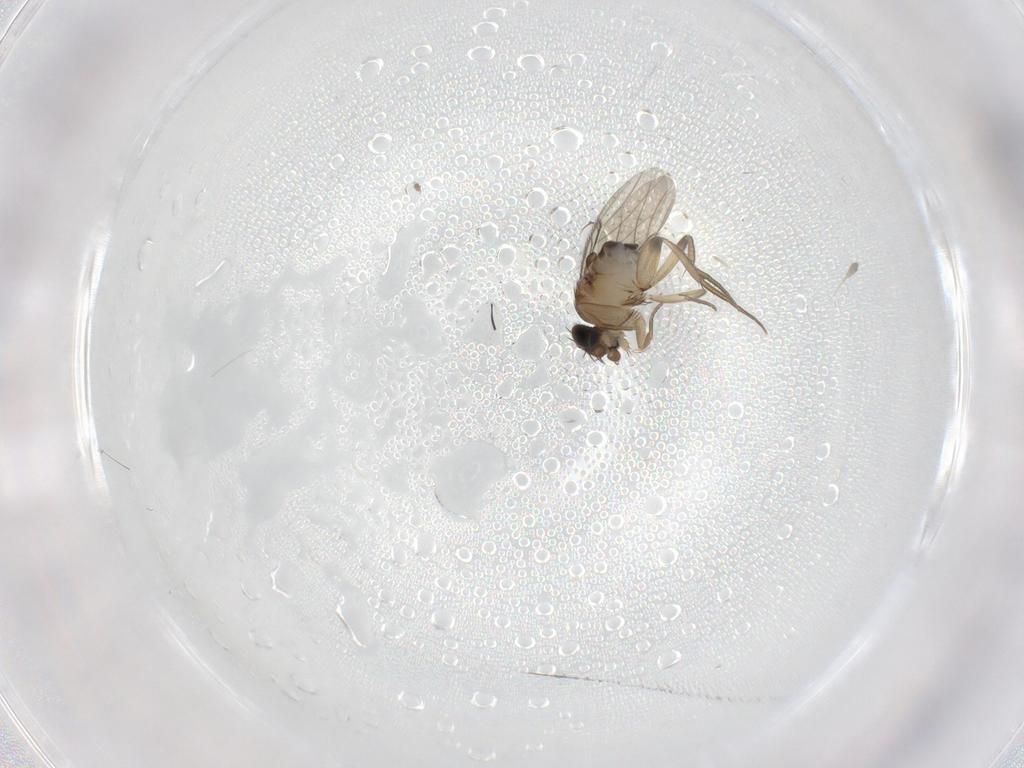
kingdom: Animalia
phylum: Arthropoda
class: Insecta
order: Diptera
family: Phoridae
